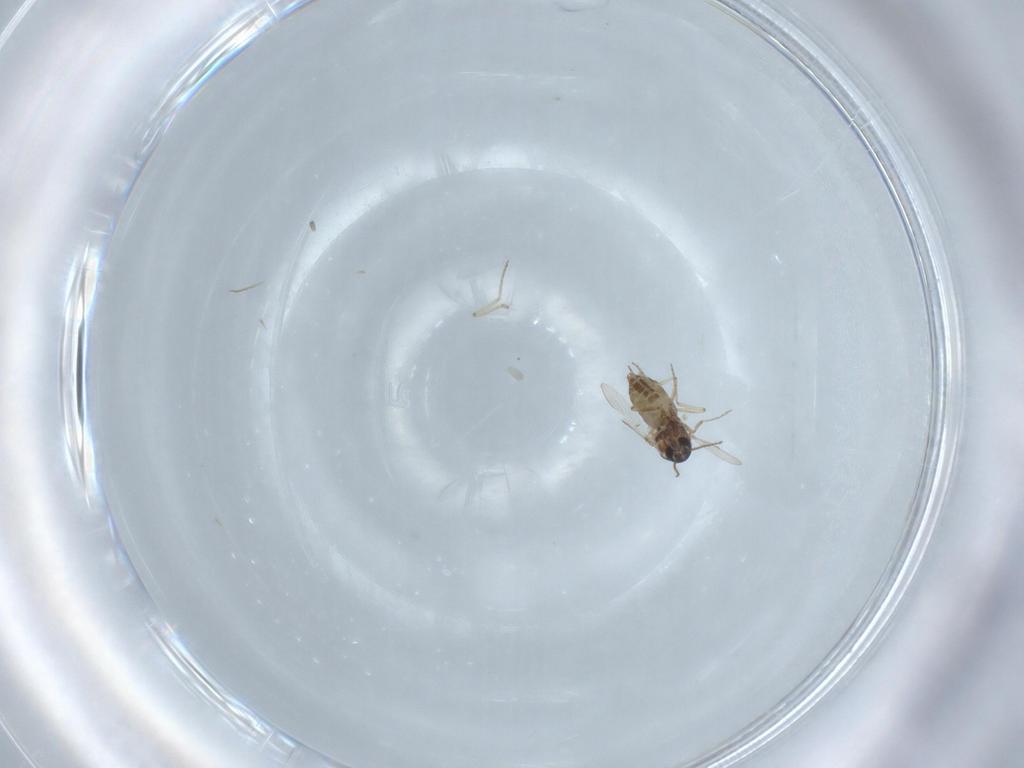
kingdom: Animalia
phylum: Arthropoda
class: Insecta
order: Diptera
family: Ceratopogonidae
